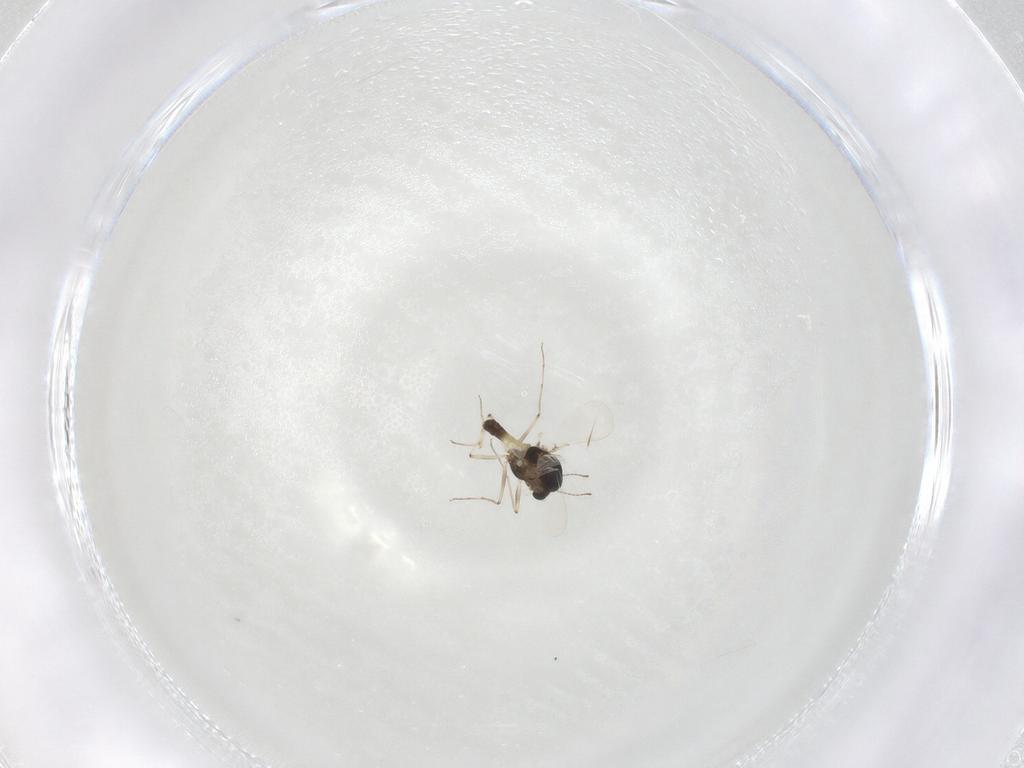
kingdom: Animalia
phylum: Arthropoda
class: Insecta
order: Diptera
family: Chironomidae
